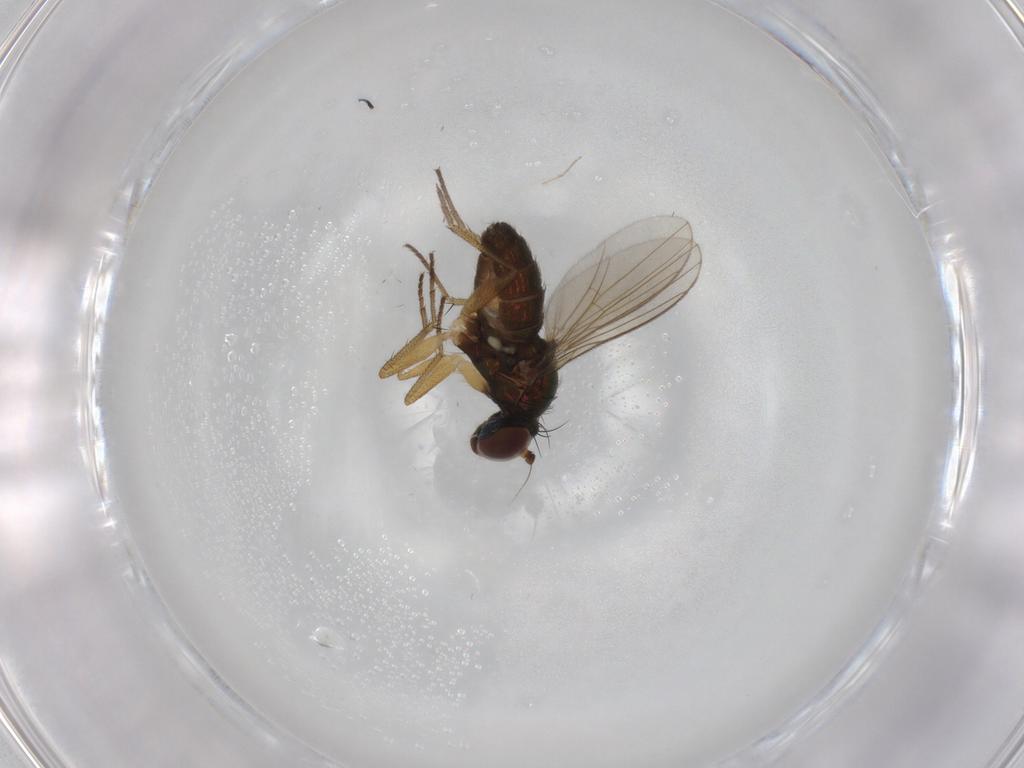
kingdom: Animalia
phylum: Arthropoda
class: Insecta
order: Diptera
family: Dolichopodidae
